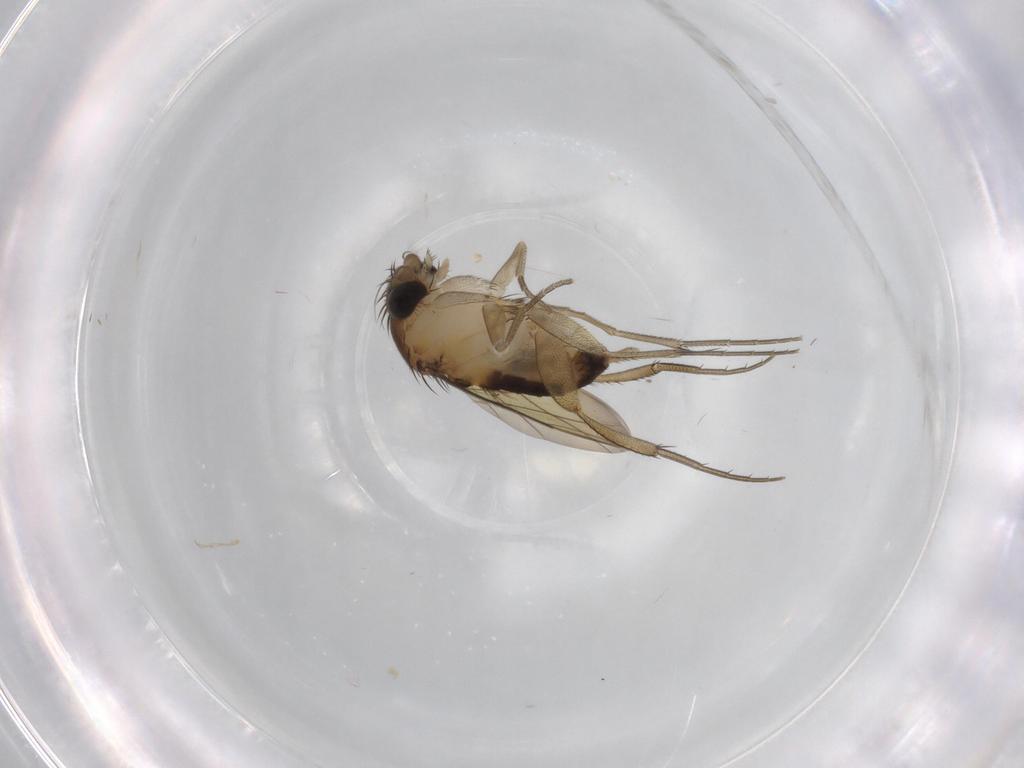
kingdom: Animalia
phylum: Arthropoda
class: Insecta
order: Diptera
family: Phoridae
